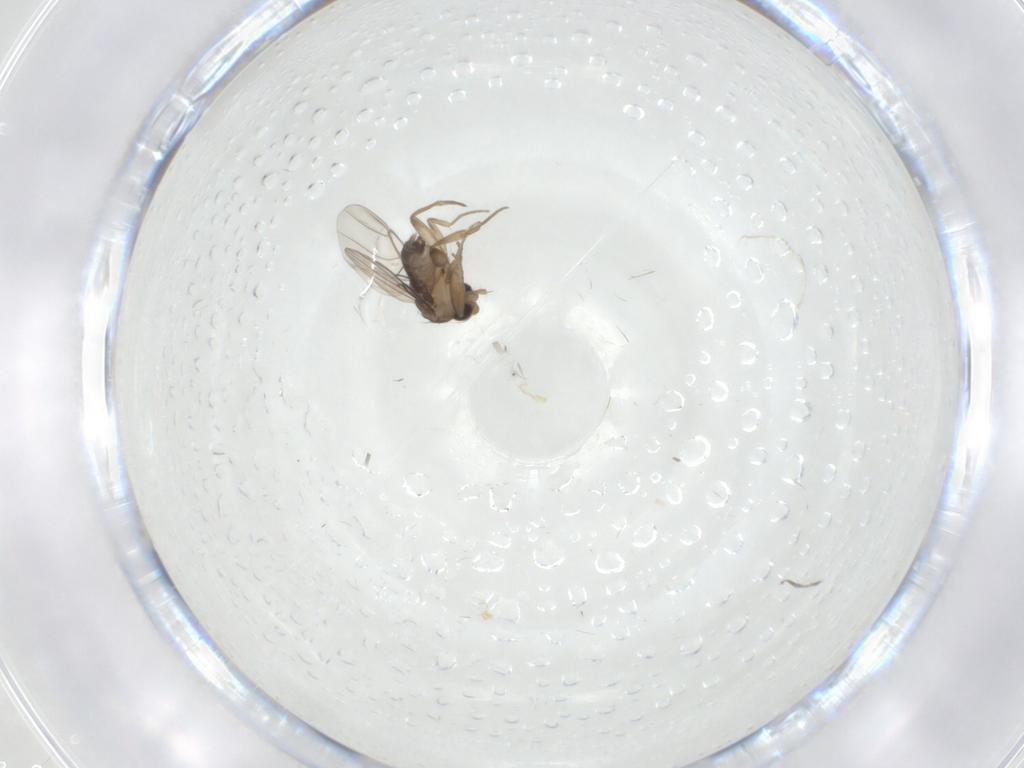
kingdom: Animalia
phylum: Arthropoda
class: Insecta
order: Diptera
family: Phoridae
